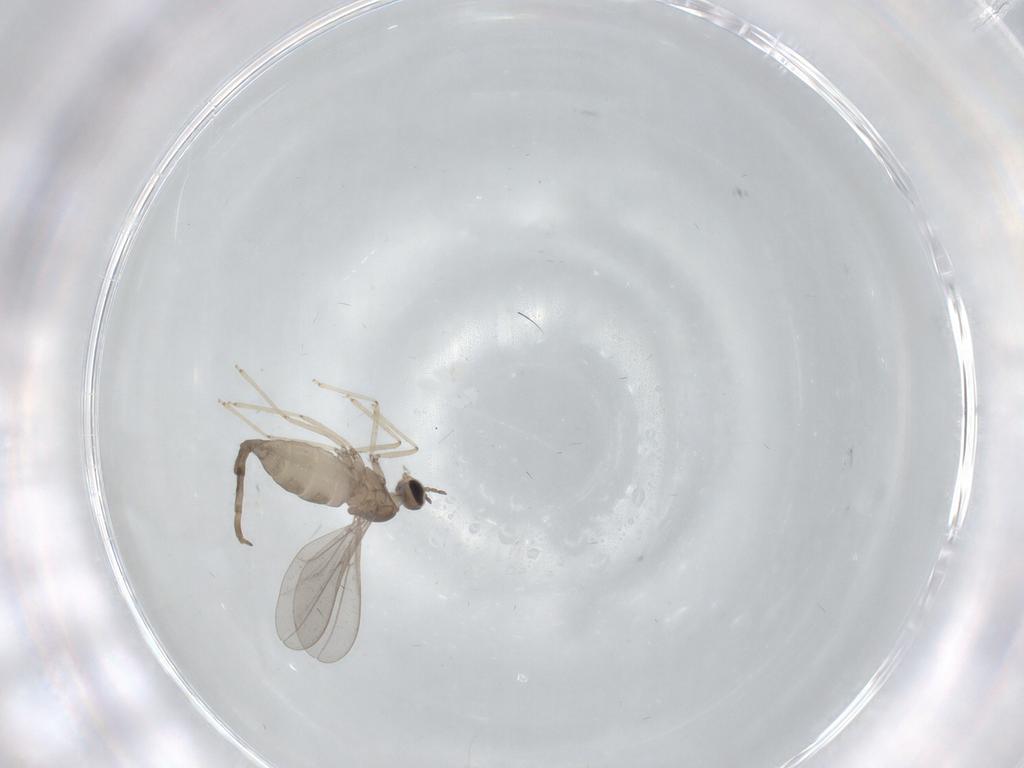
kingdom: Animalia
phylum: Arthropoda
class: Insecta
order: Diptera
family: Cecidomyiidae
